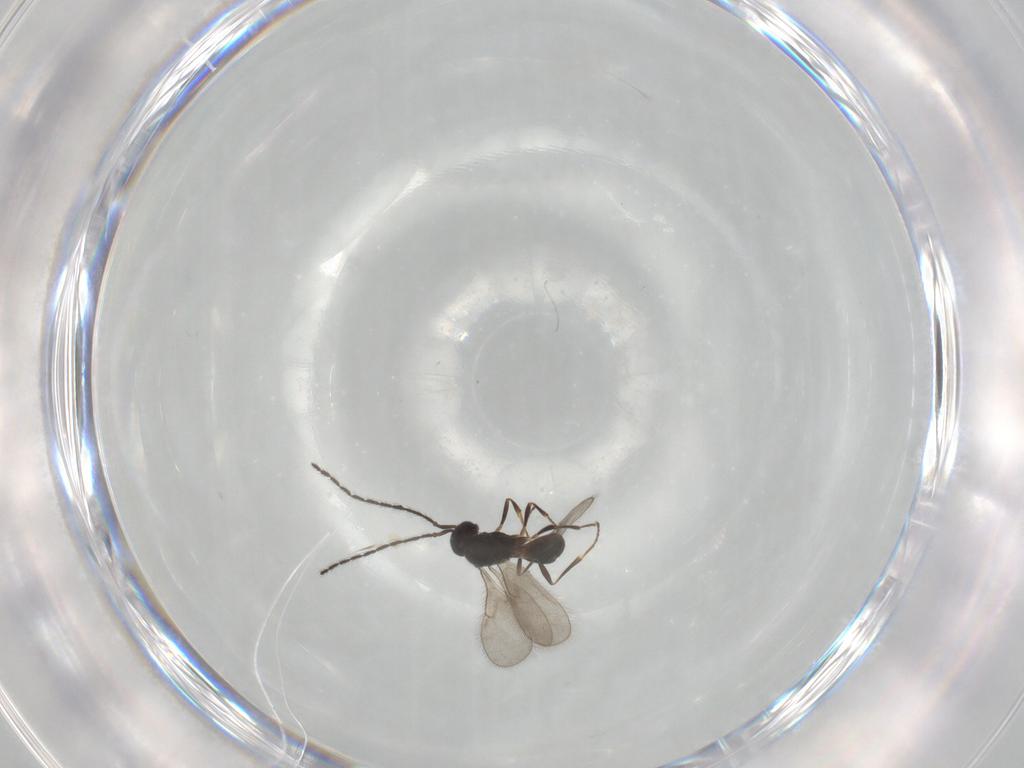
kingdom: Animalia
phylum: Arthropoda
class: Insecta
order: Hymenoptera
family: Scelionidae
